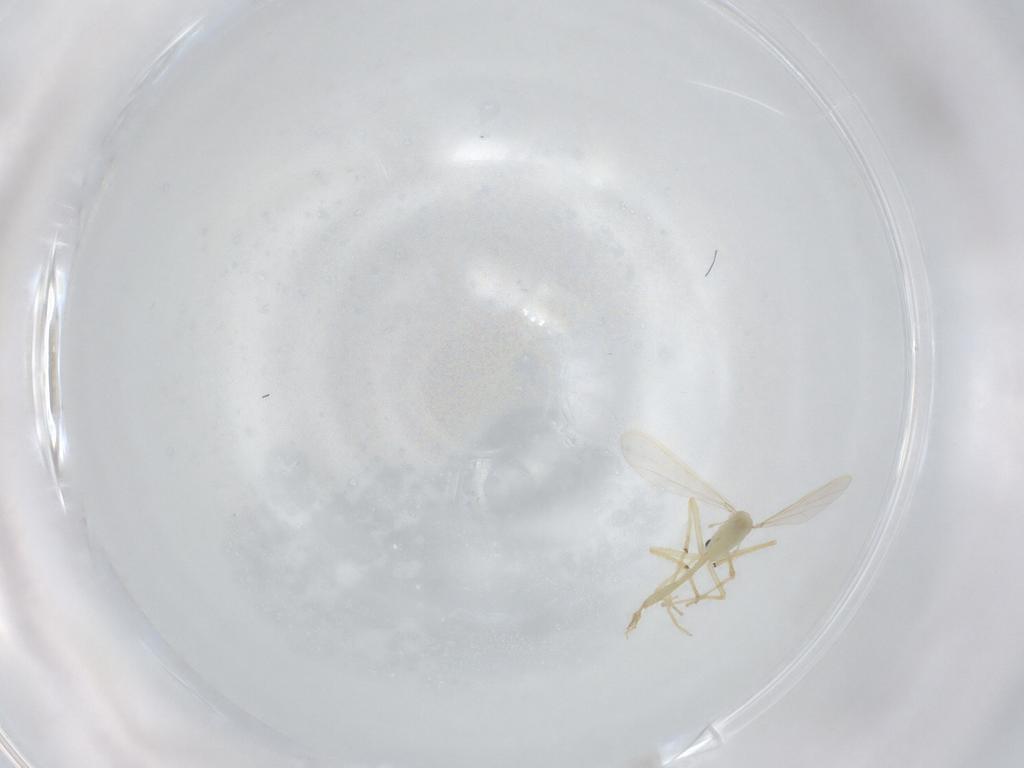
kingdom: Animalia
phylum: Arthropoda
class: Insecta
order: Diptera
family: Chironomidae
